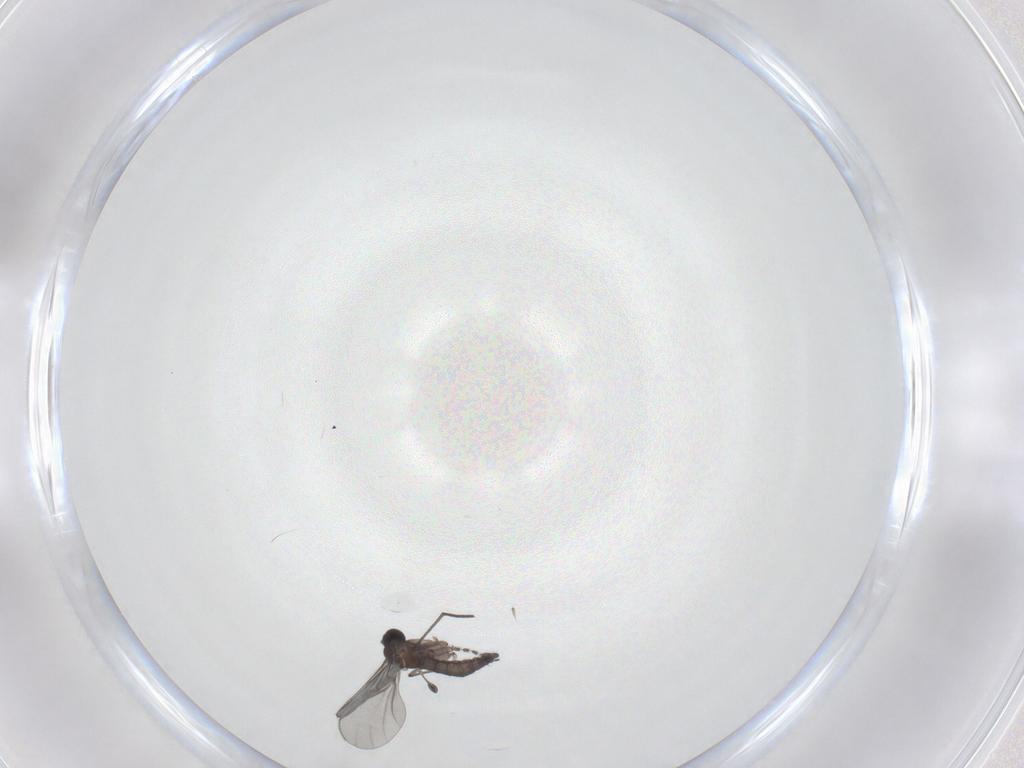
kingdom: Animalia
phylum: Arthropoda
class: Insecta
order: Diptera
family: Sciaridae
